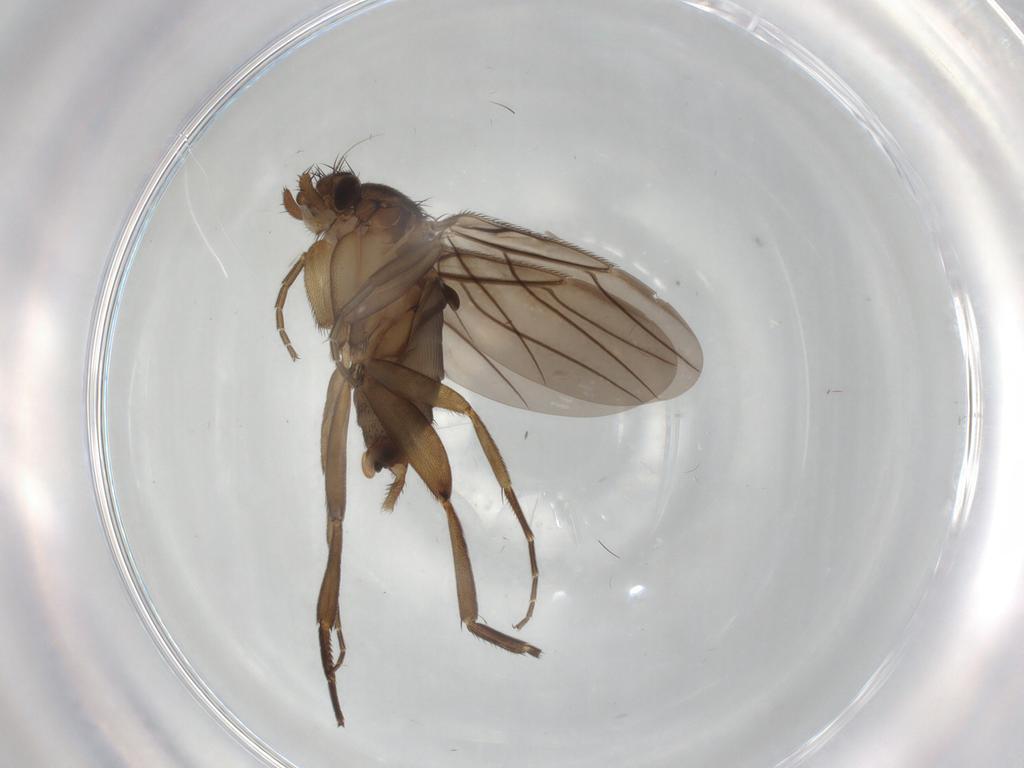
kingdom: Animalia
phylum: Arthropoda
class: Insecta
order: Diptera
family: Phoridae
